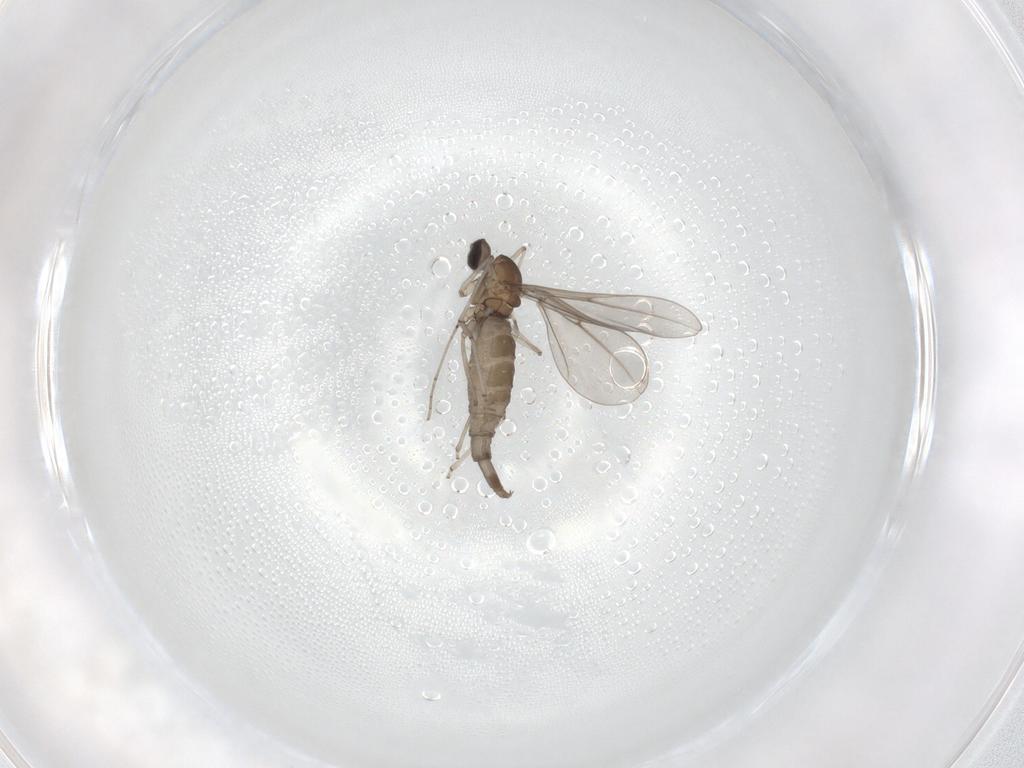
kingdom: Animalia
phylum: Arthropoda
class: Insecta
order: Diptera
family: Cecidomyiidae
